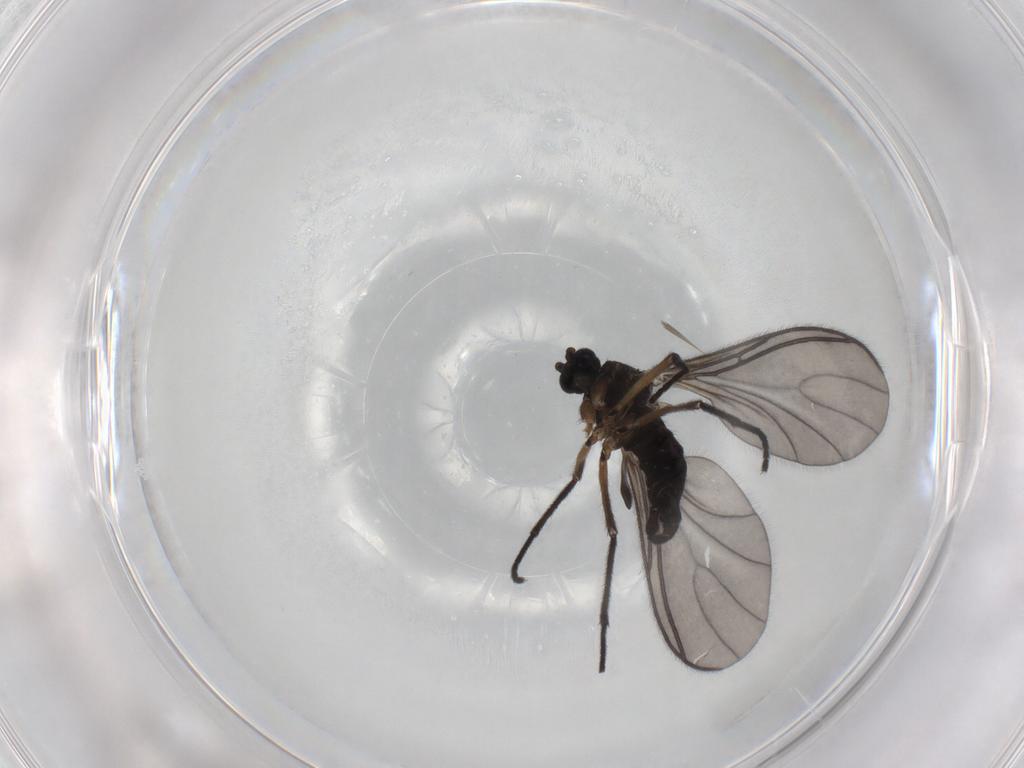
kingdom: Animalia
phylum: Arthropoda
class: Insecta
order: Diptera
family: Sciaridae
